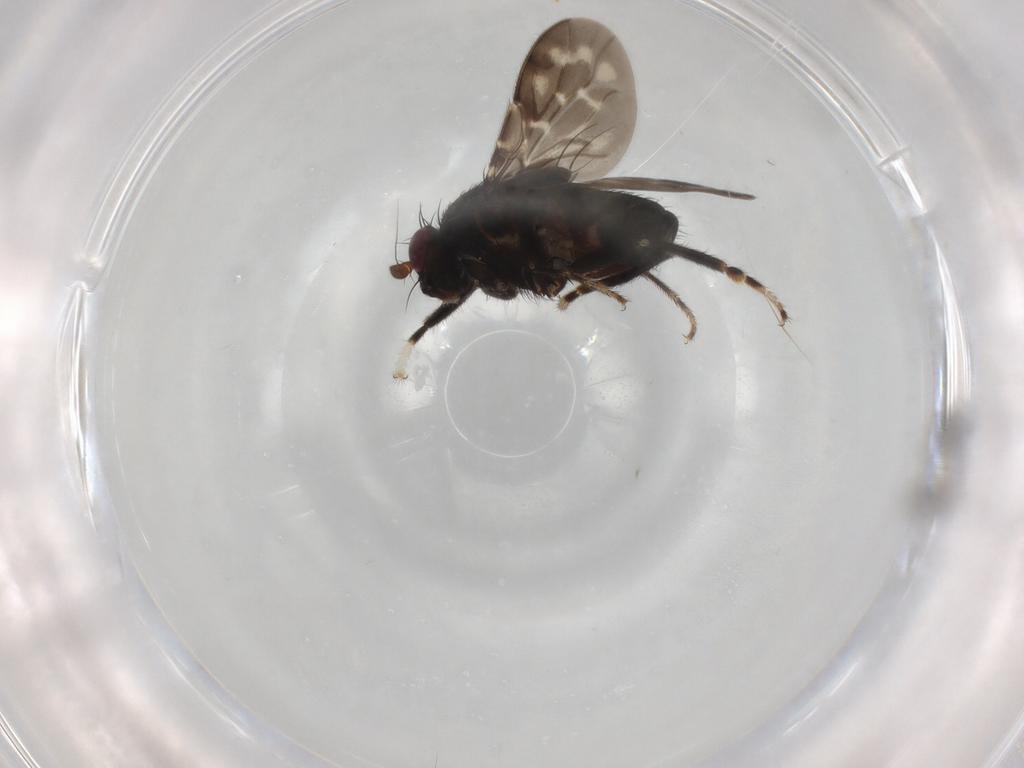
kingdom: Animalia
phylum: Arthropoda
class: Insecta
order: Diptera
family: Sphaeroceridae
